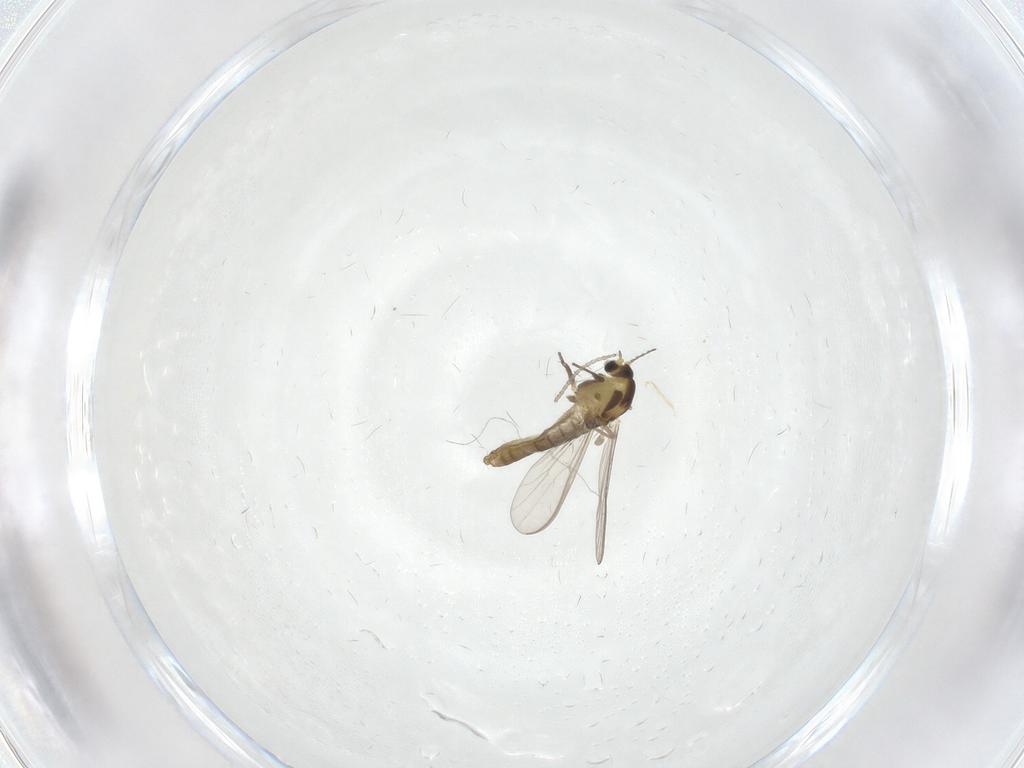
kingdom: Animalia
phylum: Arthropoda
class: Insecta
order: Diptera
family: Chironomidae
